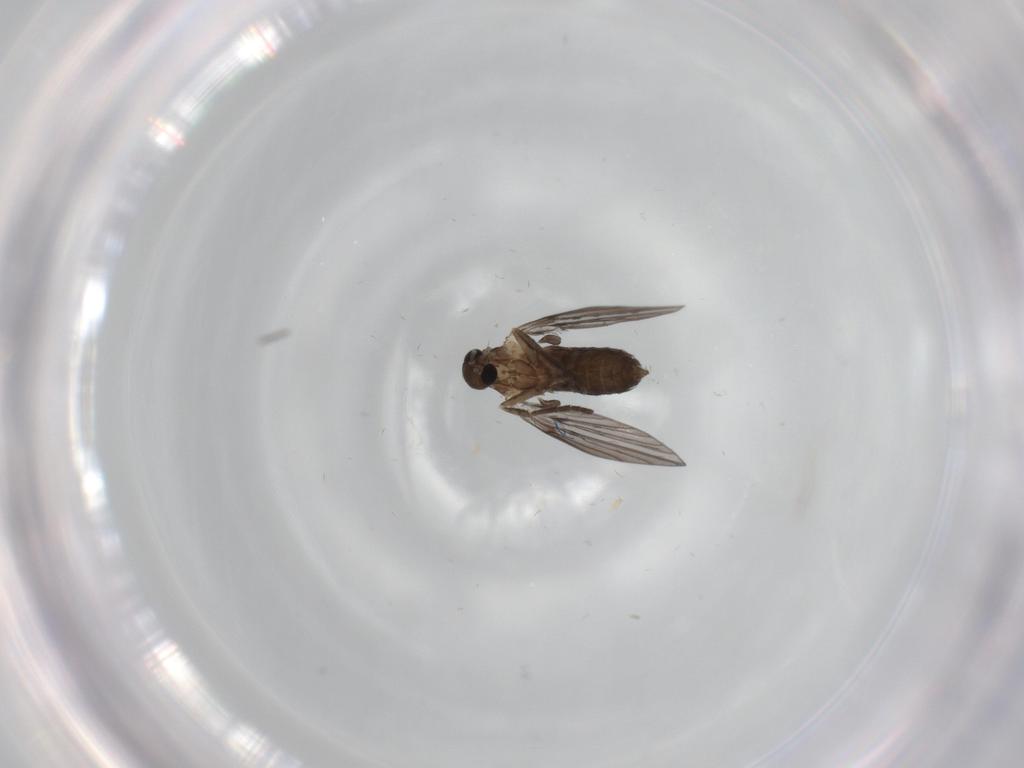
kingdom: Animalia
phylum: Arthropoda
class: Insecta
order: Diptera
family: Psychodidae
